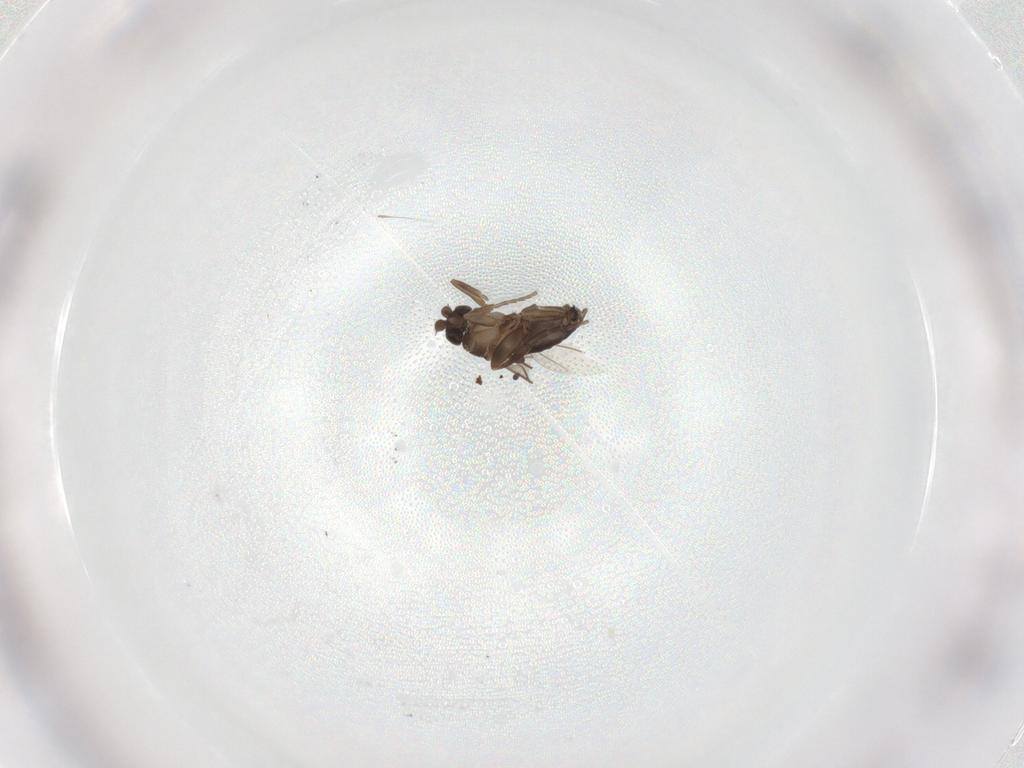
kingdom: Animalia
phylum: Arthropoda
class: Insecta
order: Diptera
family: Phoridae
